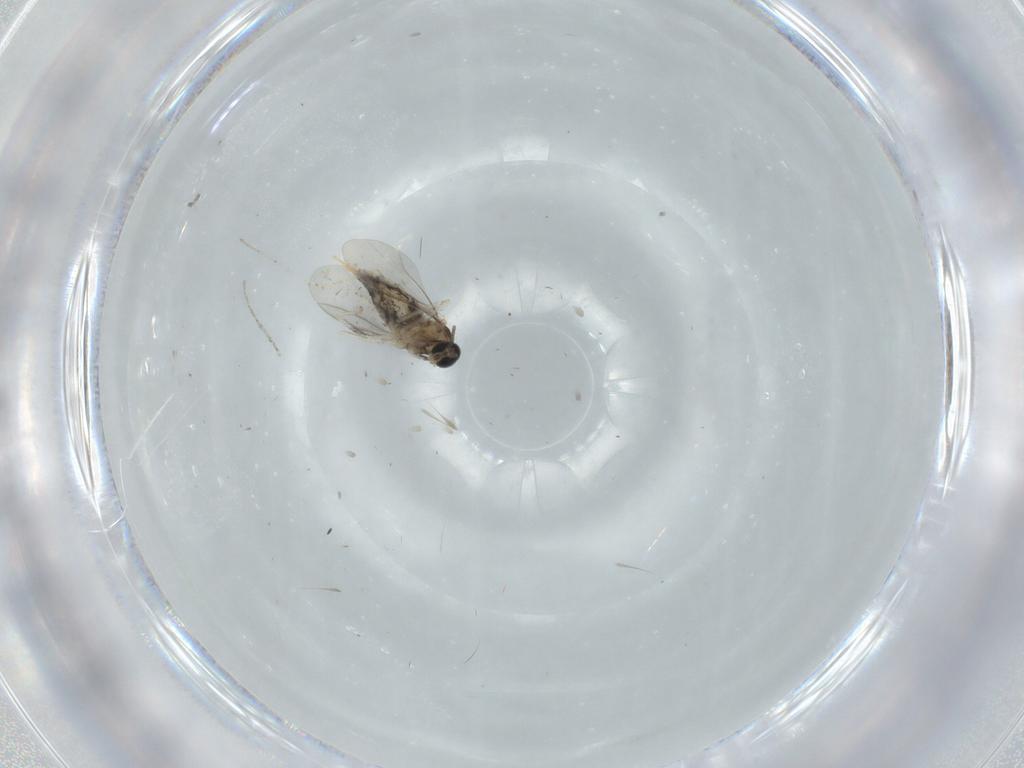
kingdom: Animalia
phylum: Arthropoda
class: Insecta
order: Diptera
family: Cecidomyiidae
